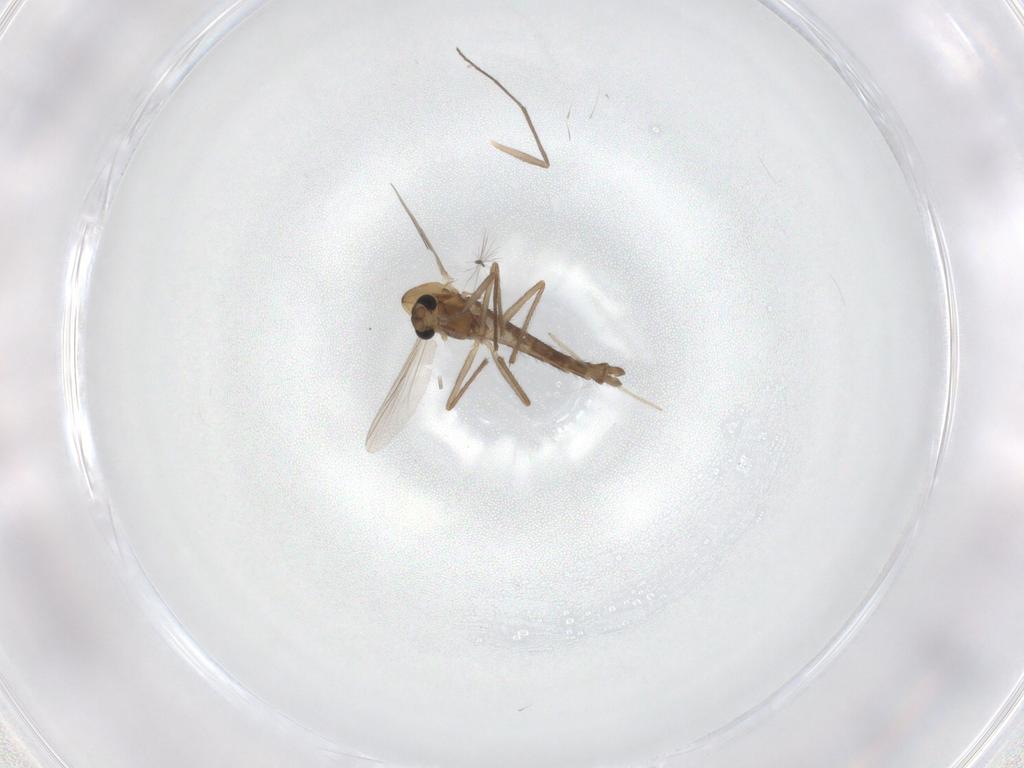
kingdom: Animalia
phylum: Arthropoda
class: Insecta
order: Diptera
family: Chironomidae
